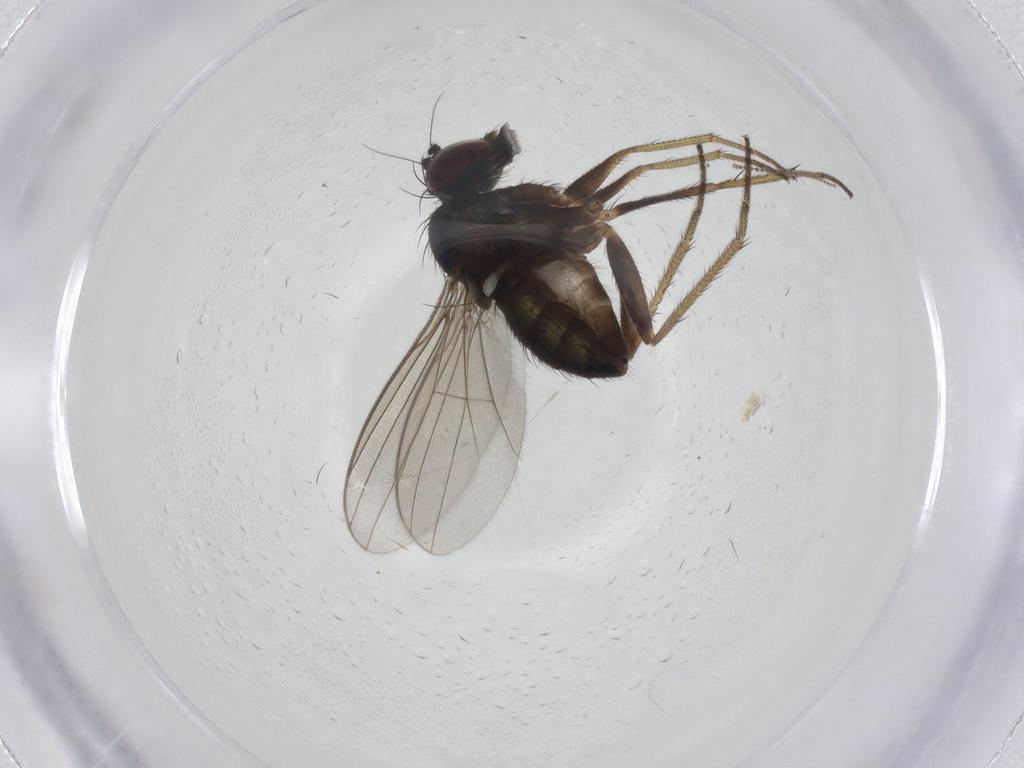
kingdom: Animalia
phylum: Arthropoda
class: Insecta
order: Diptera
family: Dolichopodidae
